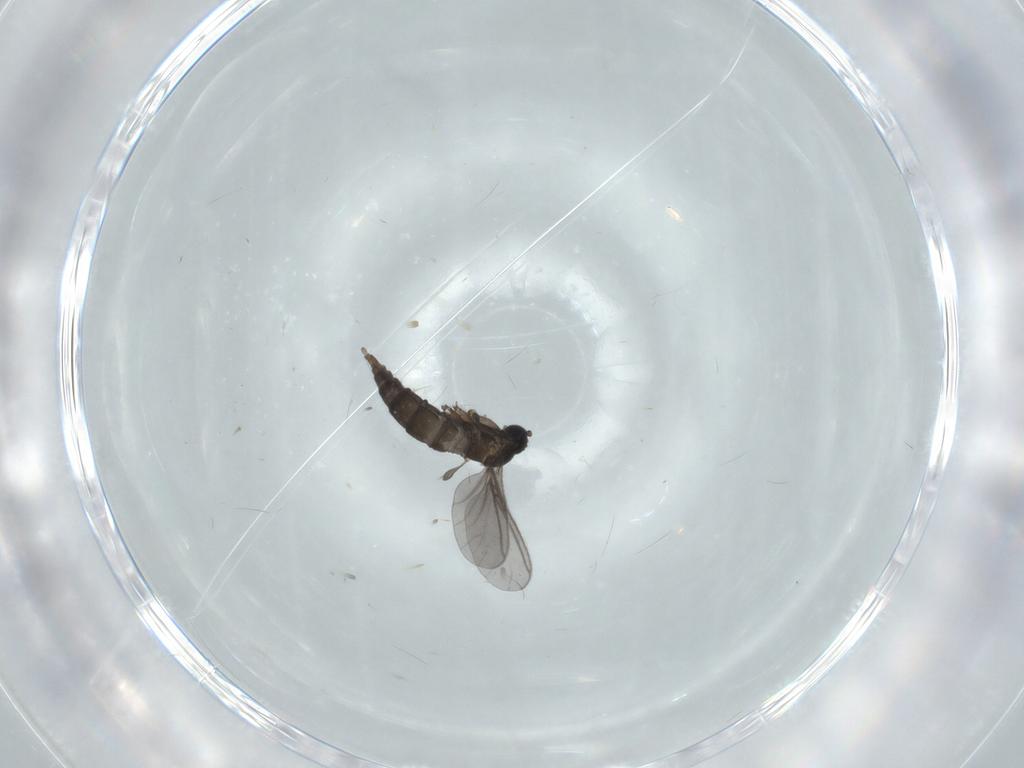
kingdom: Animalia
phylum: Arthropoda
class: Insecta
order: Diptera
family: Sciaridae
